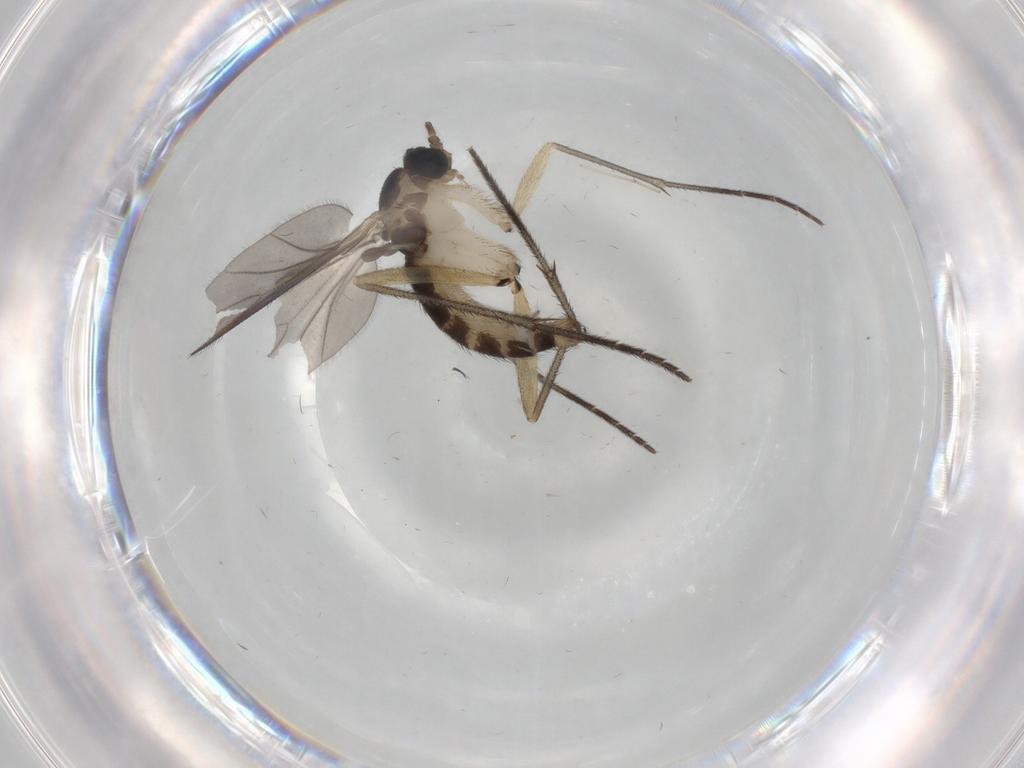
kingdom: Animalia
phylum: Arthropoda
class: Insecta
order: Diptera
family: Sciaridae
